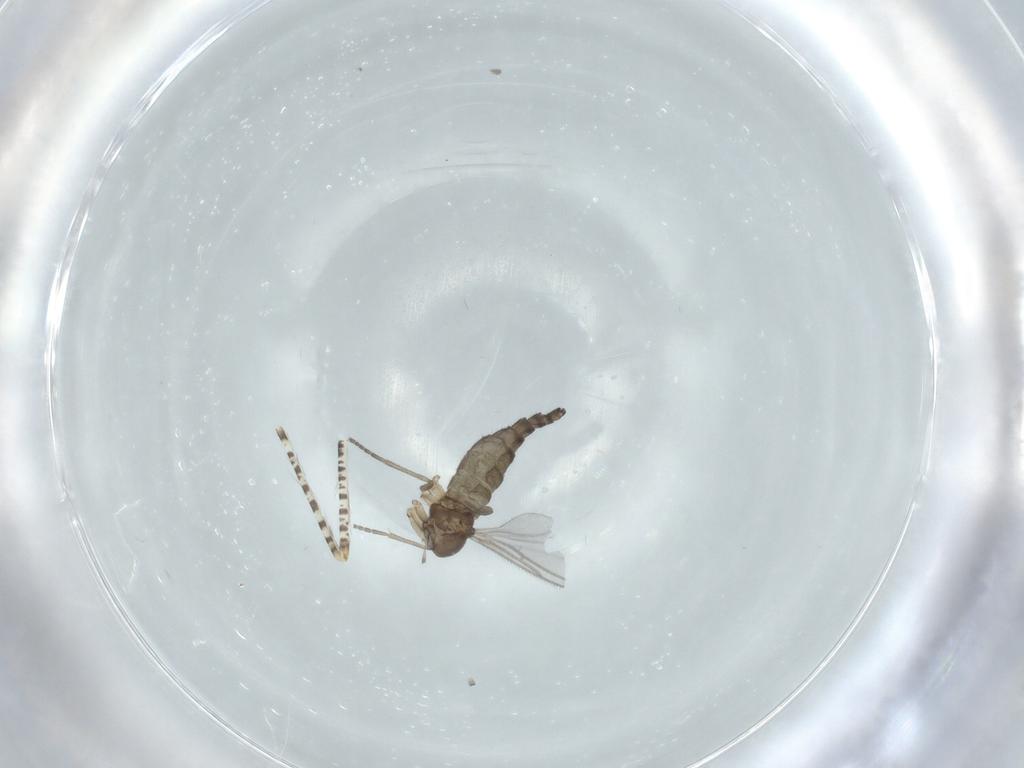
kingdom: Animalia
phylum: Arthropoda
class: Insecta
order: Diptera
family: Sciaridae
